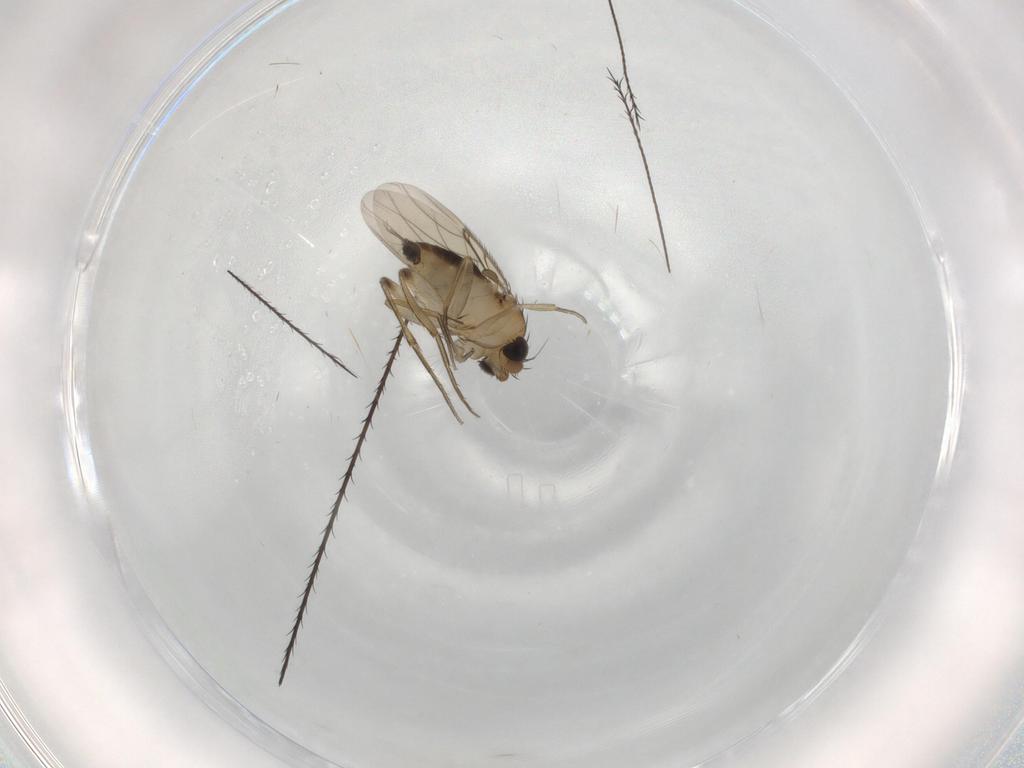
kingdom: Animalia
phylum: Arthropoda
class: Insecta
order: Diptera
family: Phoridae
